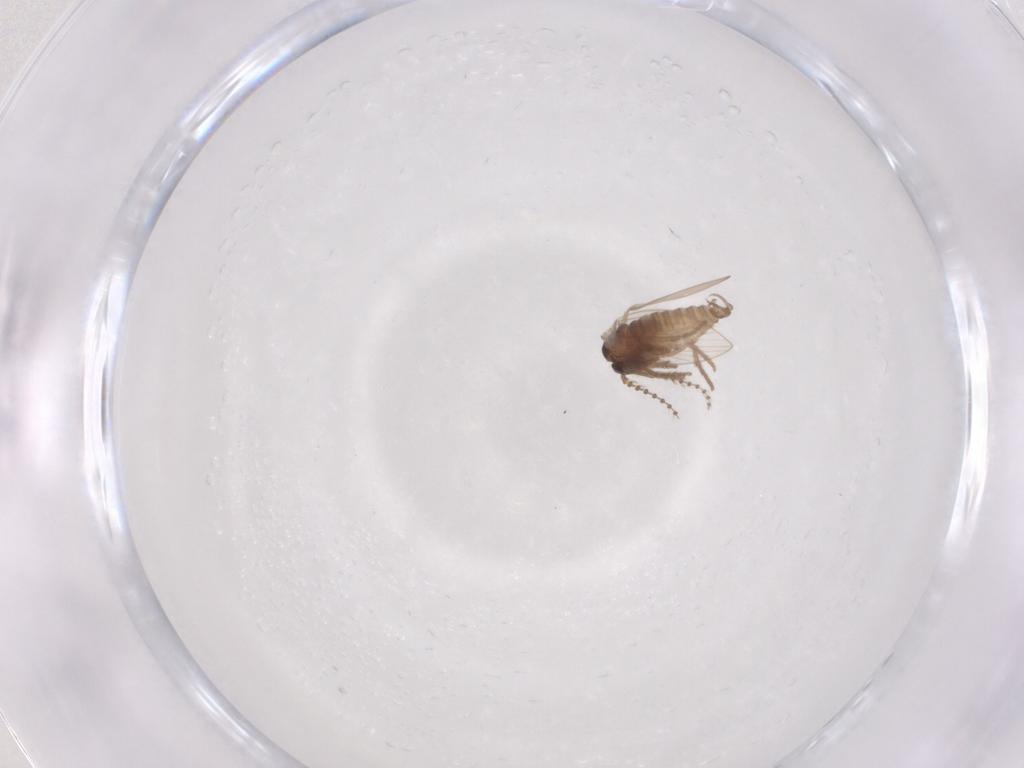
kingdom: Animalia
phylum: Arthropoda
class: Insecta
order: Diptera
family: Psychodidae
